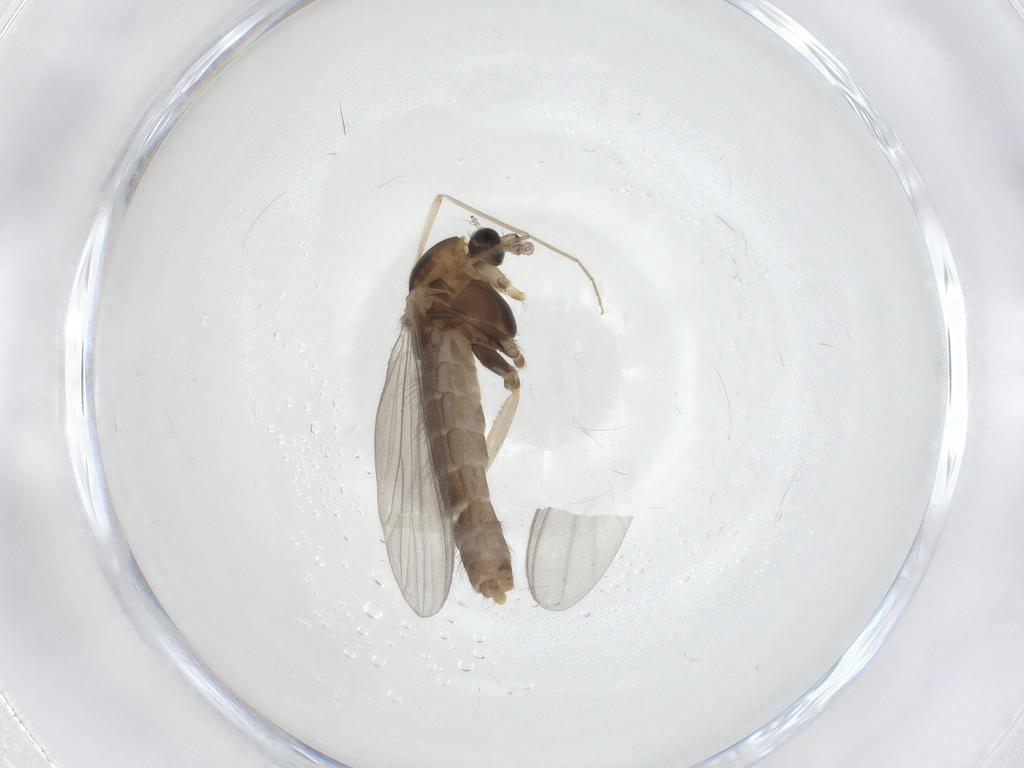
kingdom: Animalia
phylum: Arthropoda
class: Insecta
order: Diptera
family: Chironomidae
